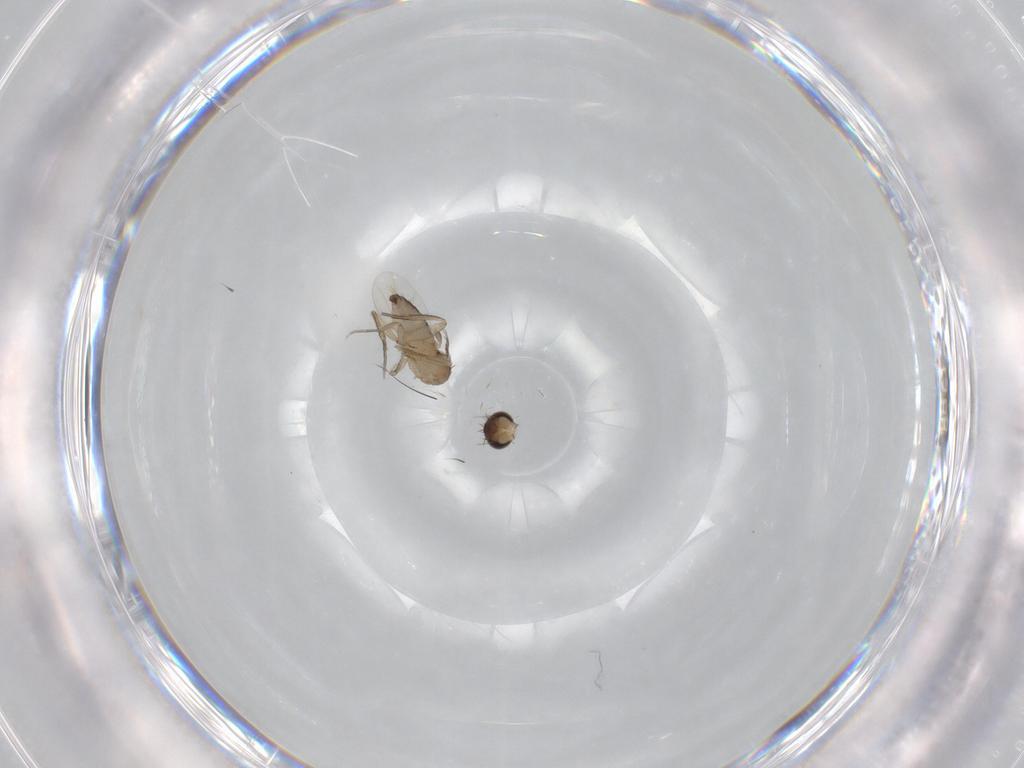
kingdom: Animalia
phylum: Arthropoda
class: Insecta
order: Diptera
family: Phoridae
